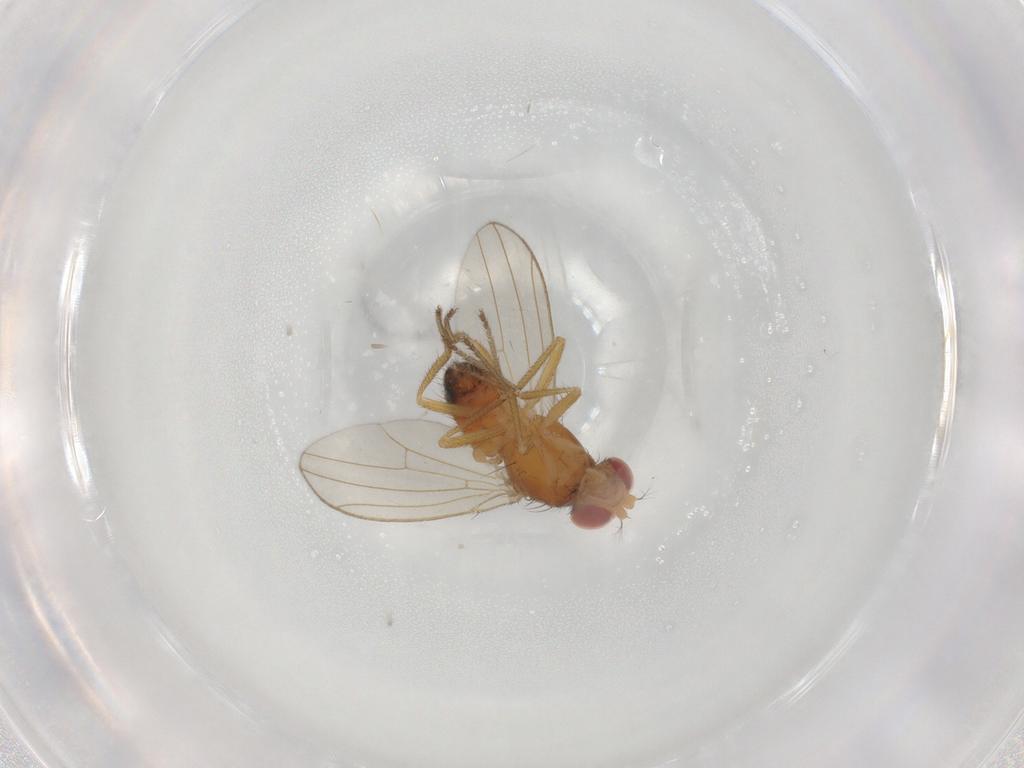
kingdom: Animalia
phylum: Arthropoda
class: Insecta
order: Diptera
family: Drosophilidae
